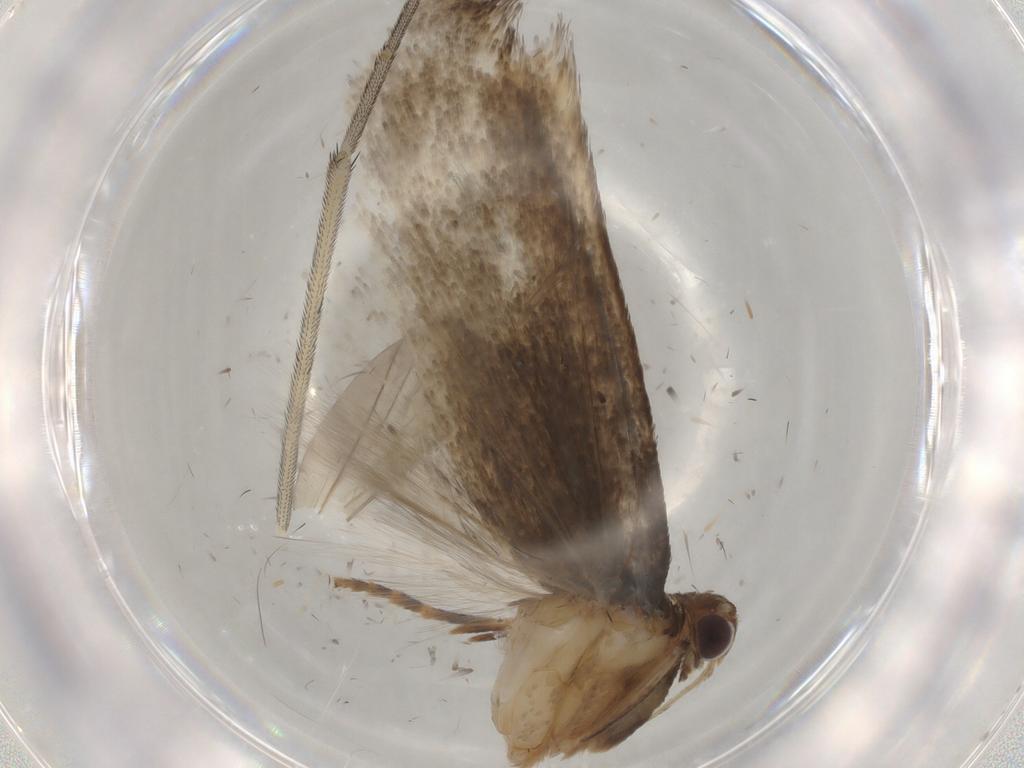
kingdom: Animalia
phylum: Arthropoda
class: Insecta
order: Lepidoptera
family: Gelechiidae
